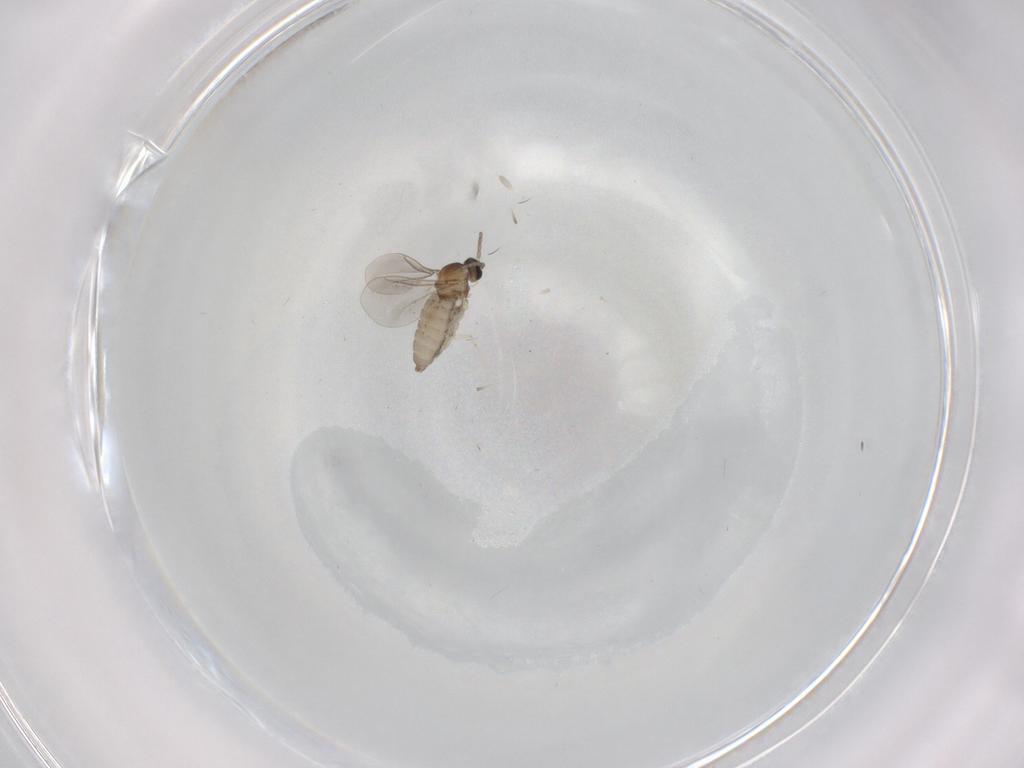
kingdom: Animalia
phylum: Arthropoda
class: Insecta
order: Diptera
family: Cecidomyiidae
